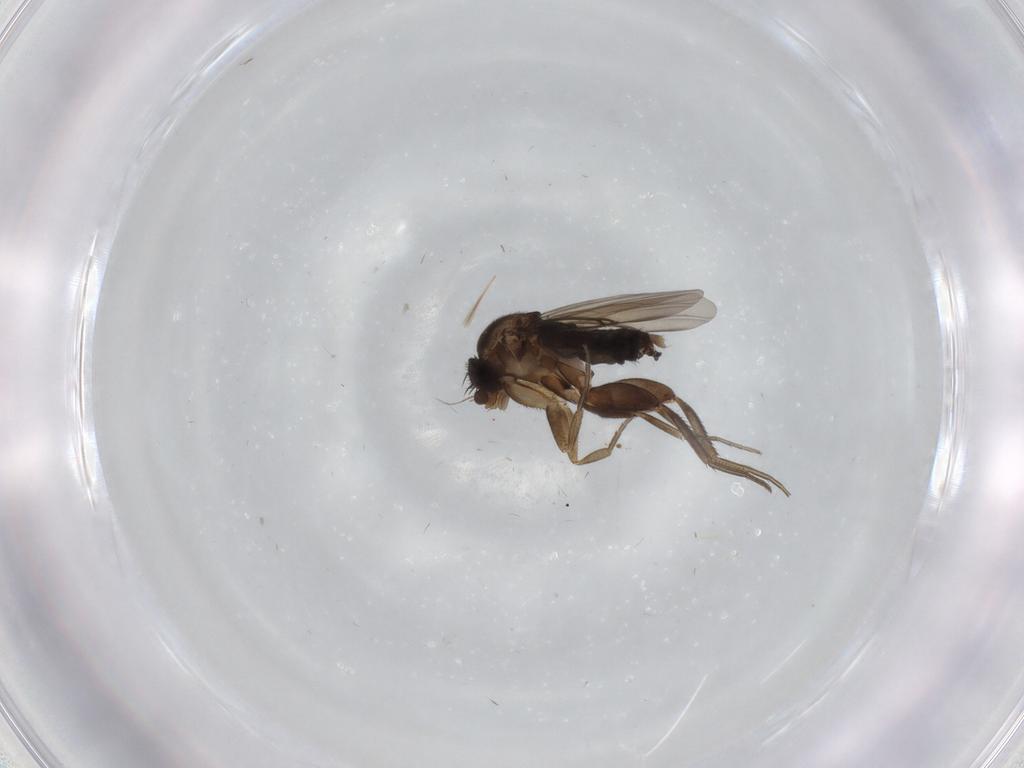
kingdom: Animalia
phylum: Arthropoda
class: Insecta
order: Diptera
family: Phoridae
